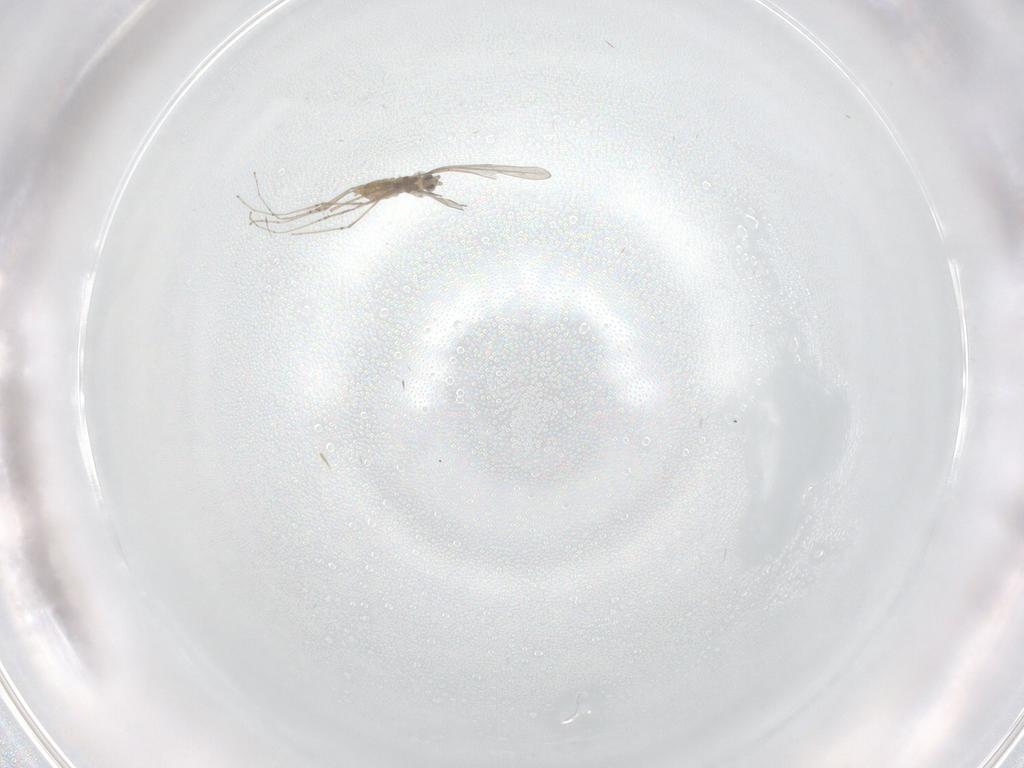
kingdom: Animalia
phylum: Arthropoda
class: Insecta
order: Diptera
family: Cecidomyiidae
